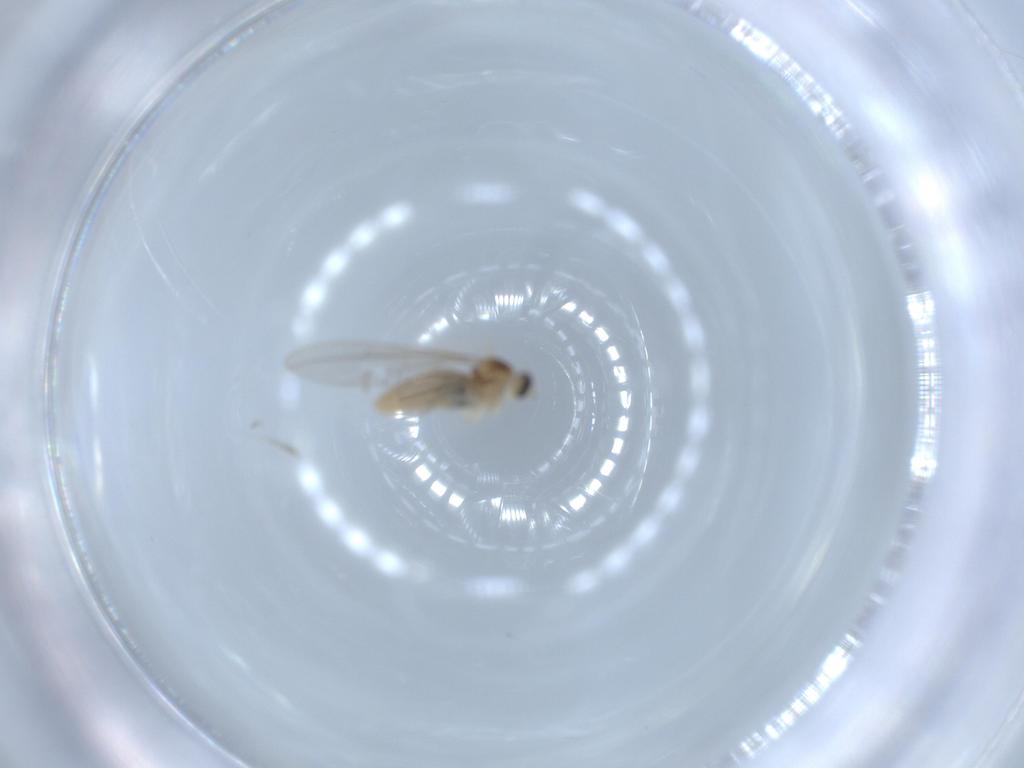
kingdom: Animalia
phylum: Arthropoda
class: Insecta
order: Diptera
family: Cecidomyiidae
